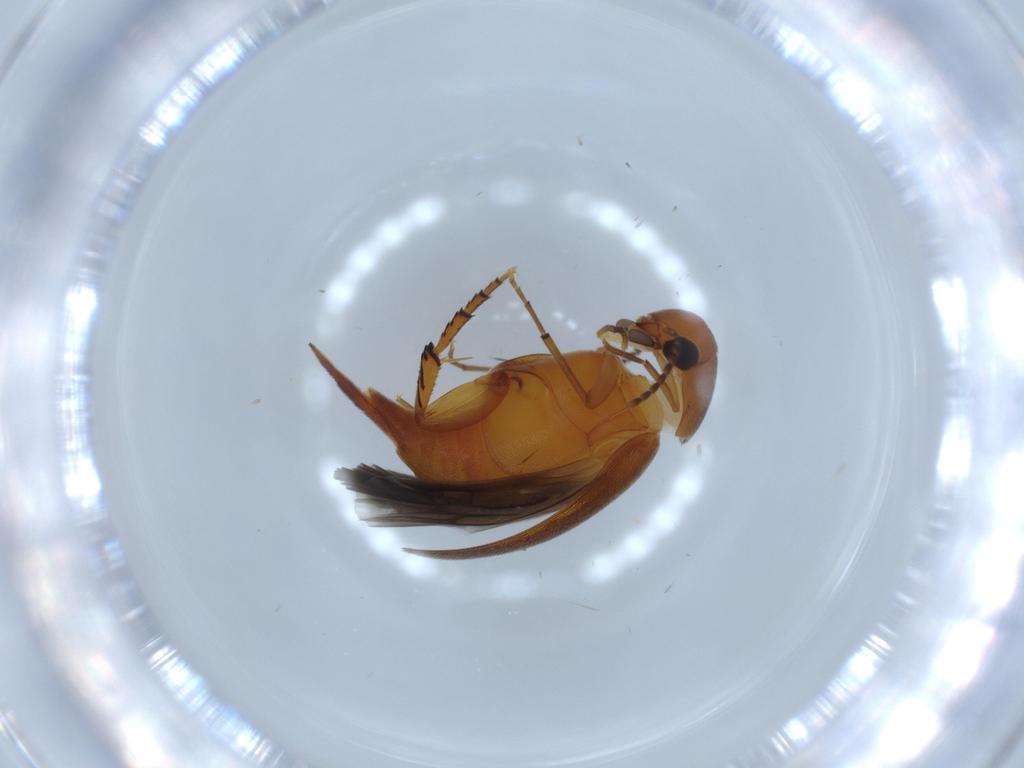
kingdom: Animalia
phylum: Arthropoda
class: Insecta
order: Coleoptera
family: Mordellidae
